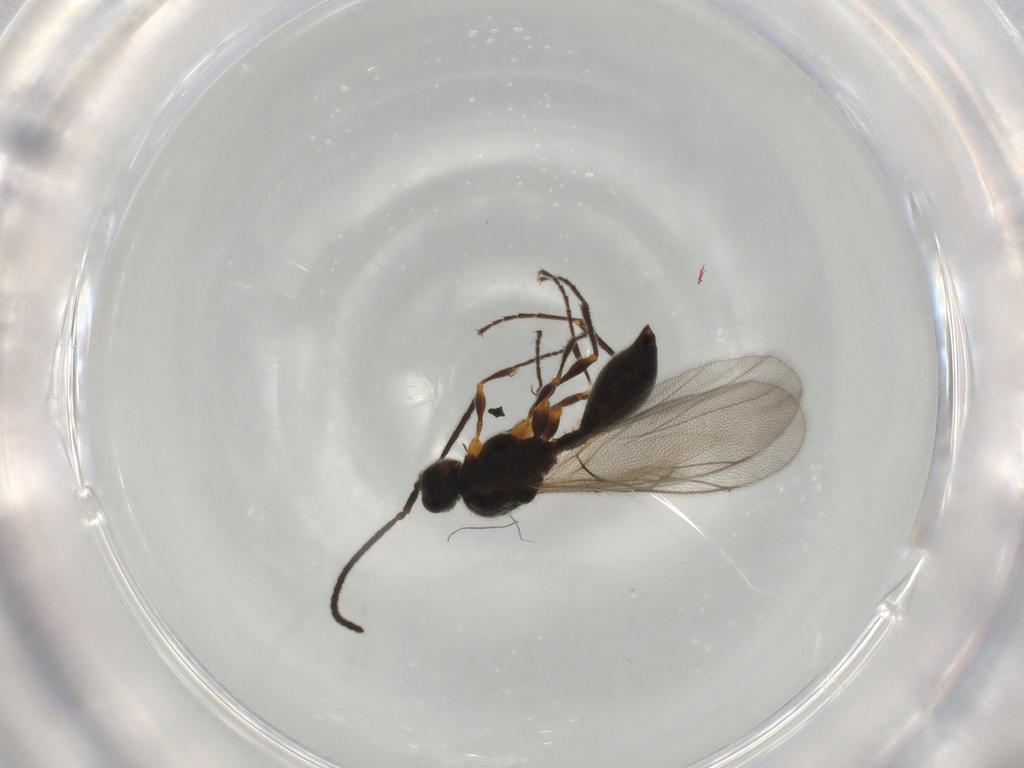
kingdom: Animalia
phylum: Arthropoda
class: Insecta
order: Hymenoptera
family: Diapriidae
